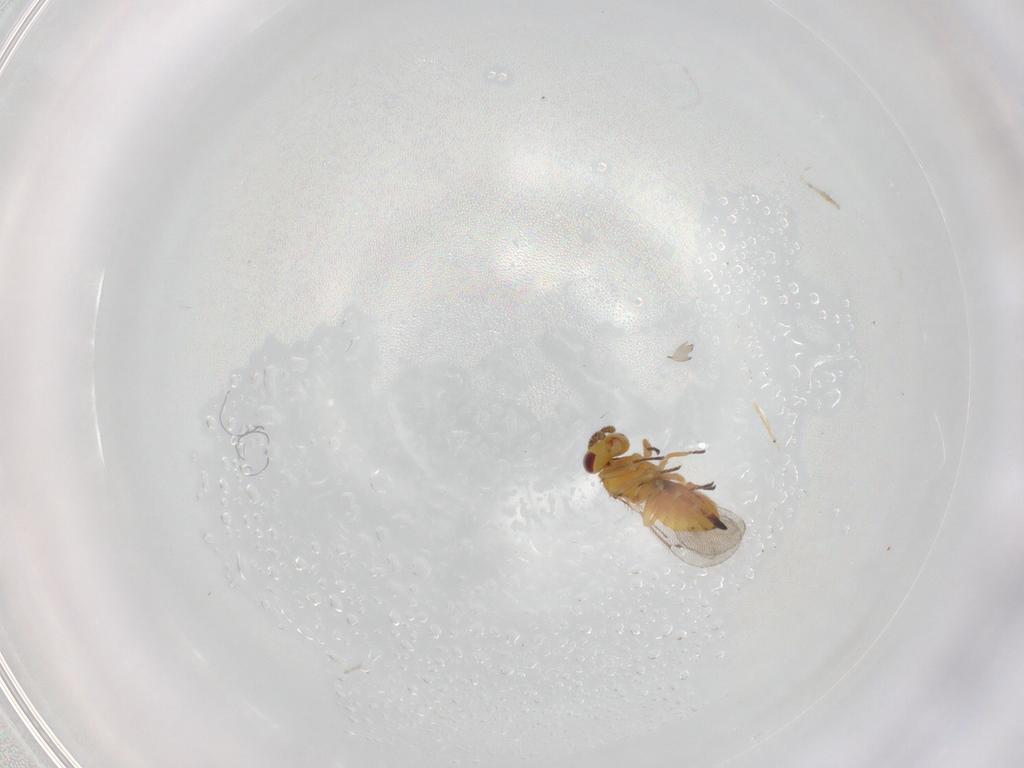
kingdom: Animalia
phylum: Arthropoda
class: Insecta
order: Hymenoptera
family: Eulophidae
